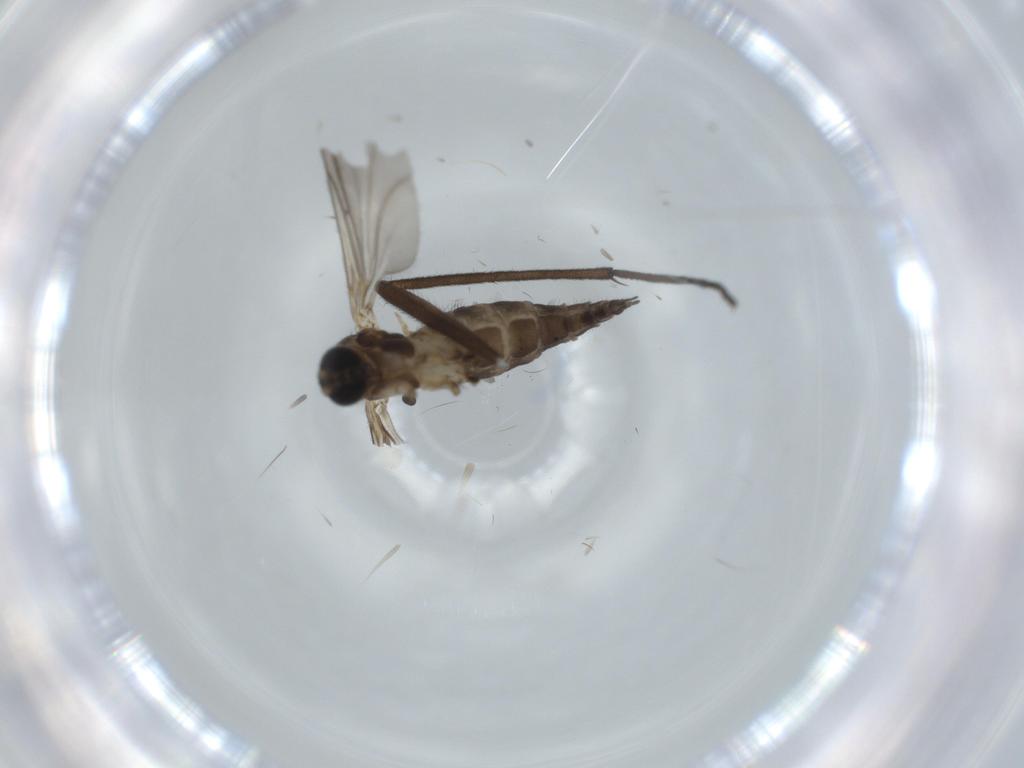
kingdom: Animalia
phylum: Arthropoda
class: Insecta
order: Diptera
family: Sciaridae
